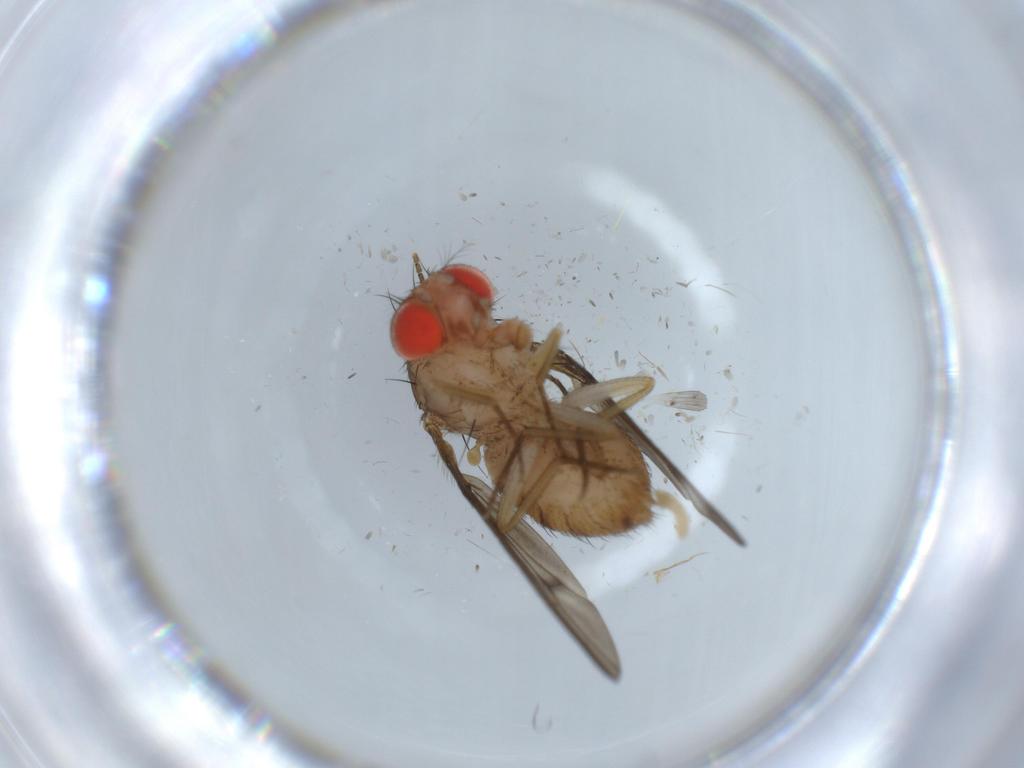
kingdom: Animalia
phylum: Arthropoda
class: Insecta
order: Diptera
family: Drosophilidae
